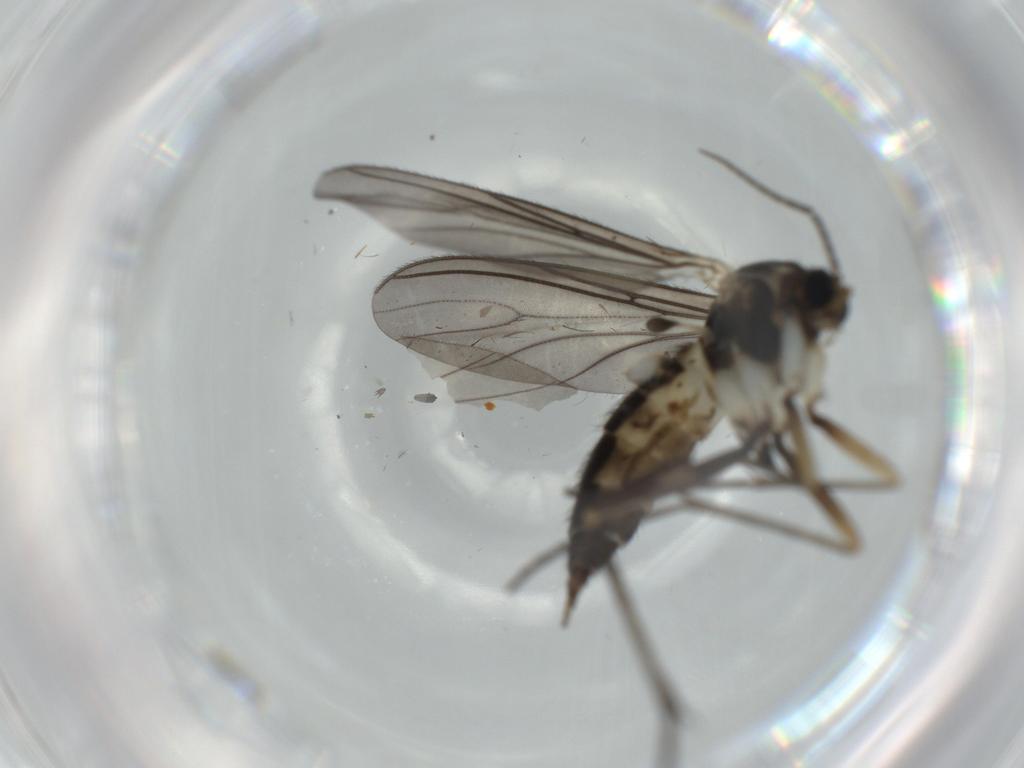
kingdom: Animalia
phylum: Arthropoda
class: Insecta
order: Diptera
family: Sciaridae
